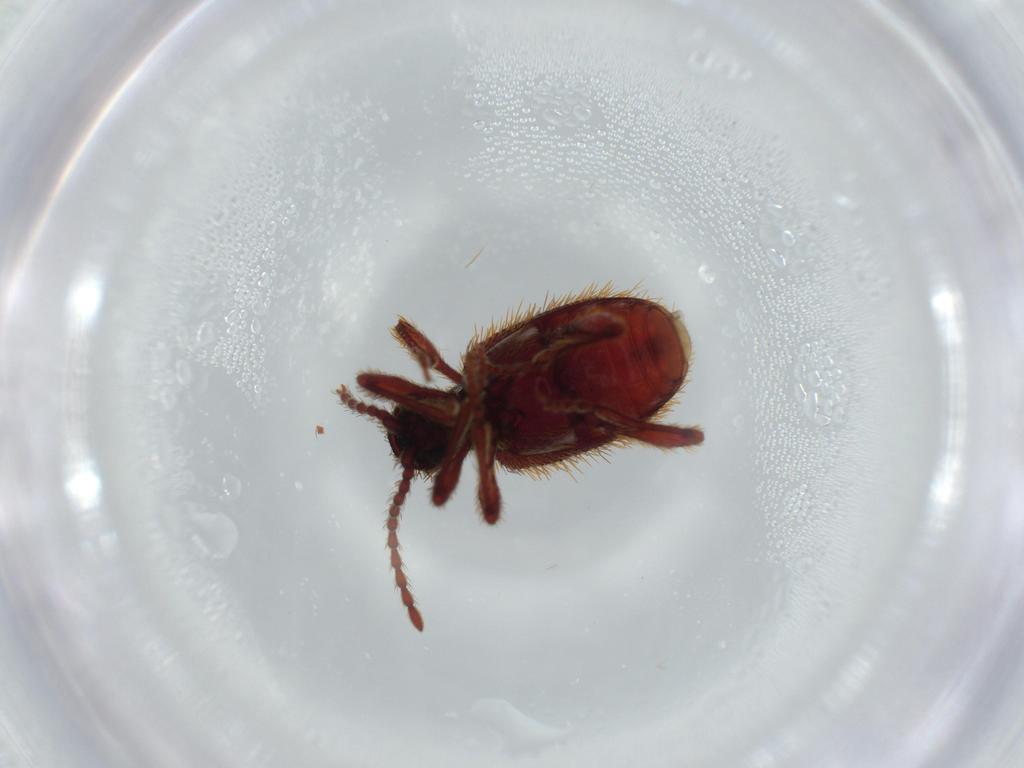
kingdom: Animalia
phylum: Arthropoda
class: Insecta
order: Coleoptera
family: Ptinidae
